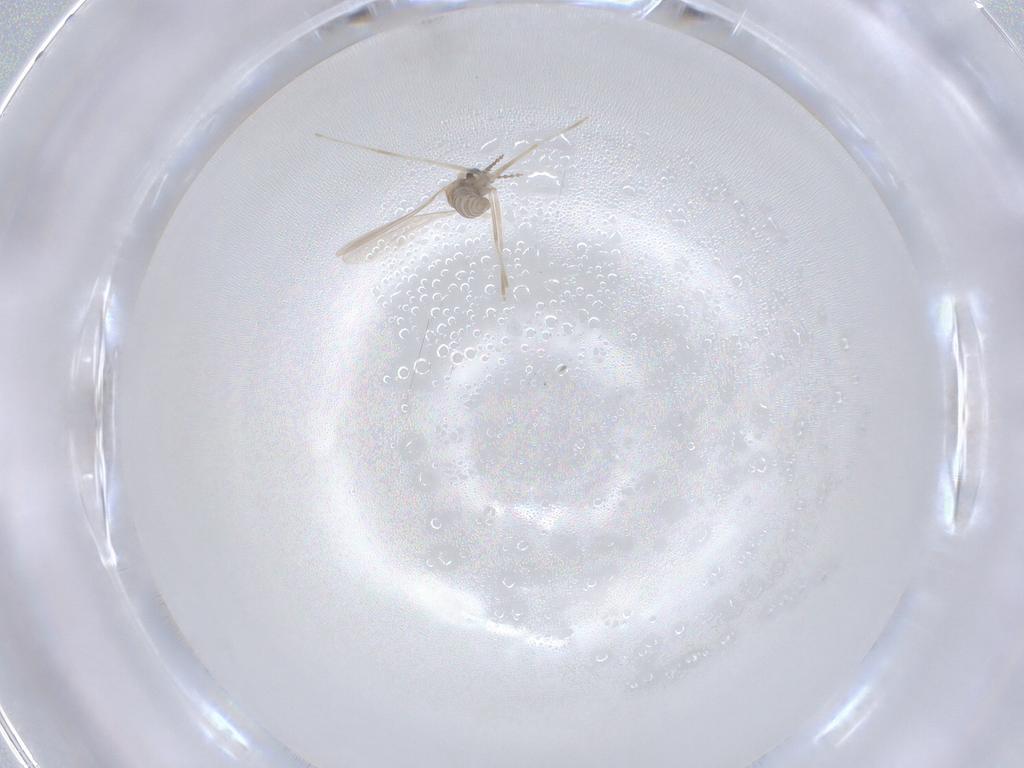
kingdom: Animalia
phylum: Arthropoda
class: Insecta
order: Diptera
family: Cecidomyiidae
